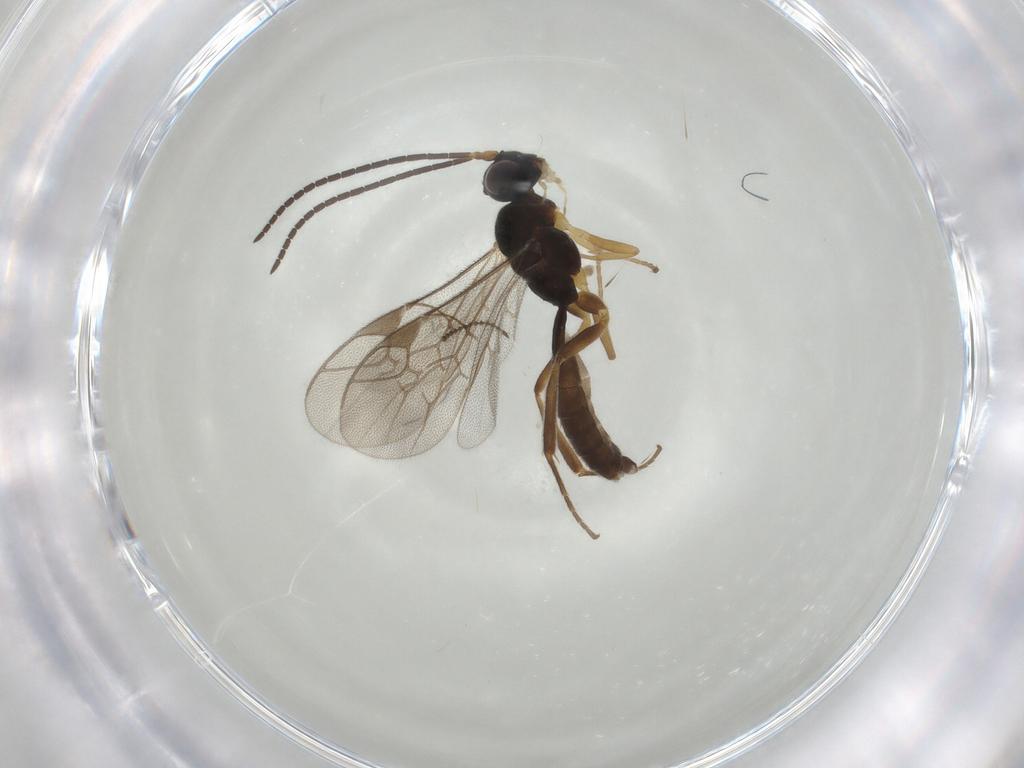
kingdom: Animalia
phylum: Arthropoda
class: Insecta
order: Hymenoptera
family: Ichneumonidae
